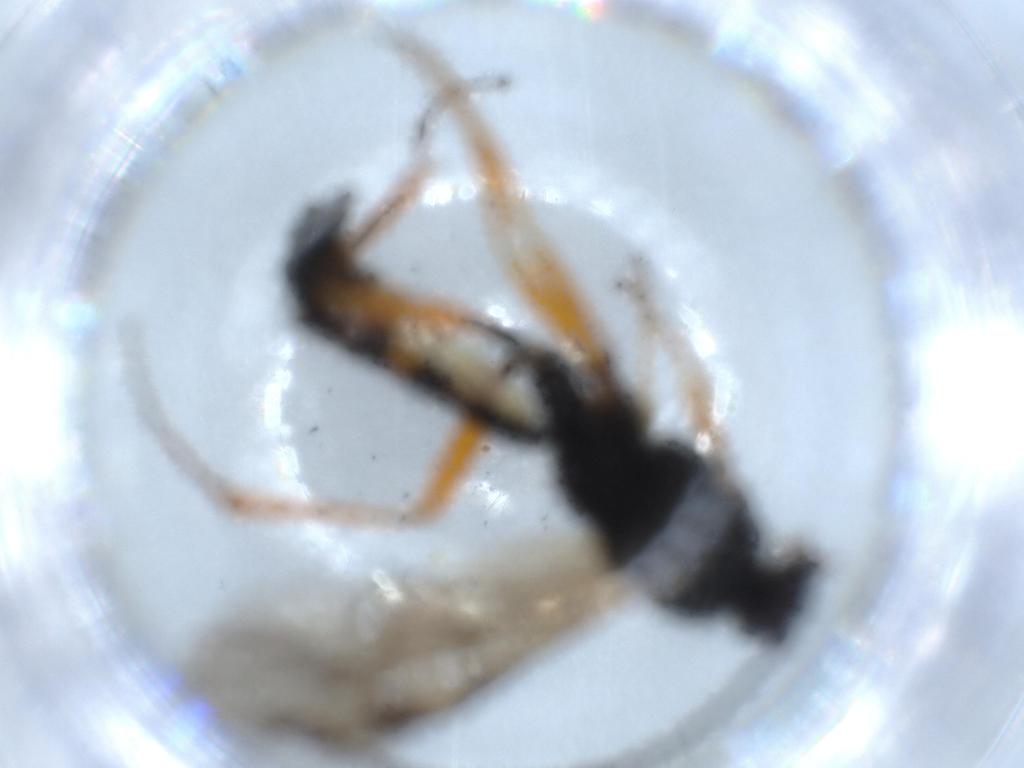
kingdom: Animalia
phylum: Arthropoda
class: Insecta
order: Hymenoptera
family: Ichneumonidae
